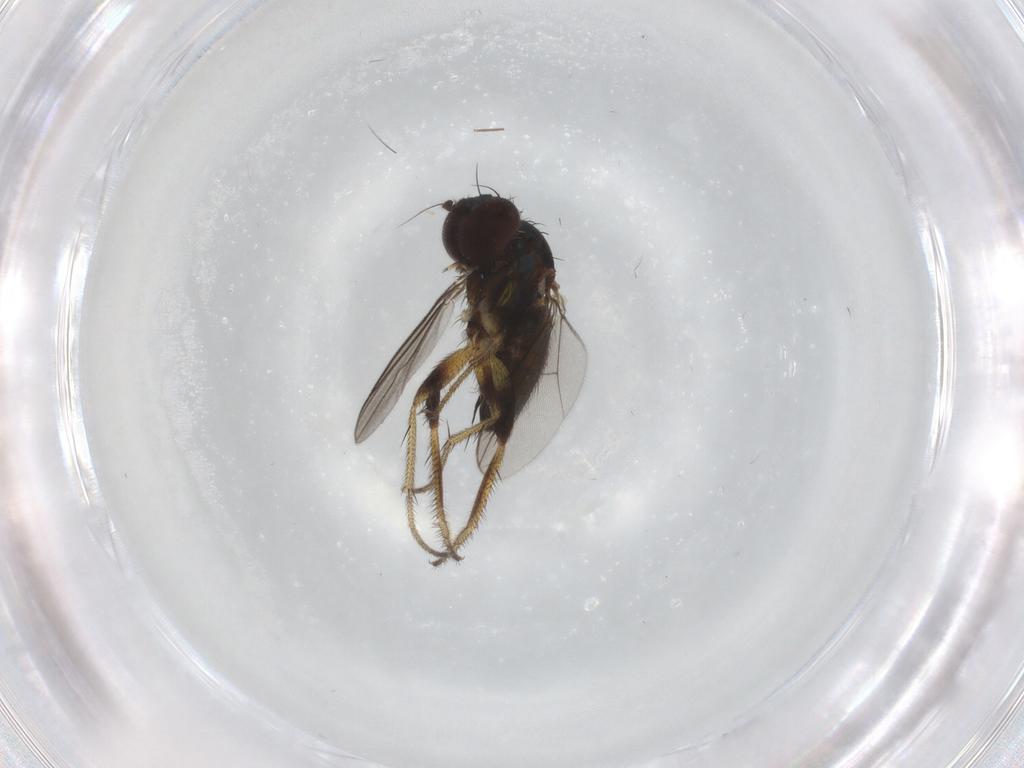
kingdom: Animalia
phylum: Arthropoda
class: Insecta
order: Diptera
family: Dolichopodidae
